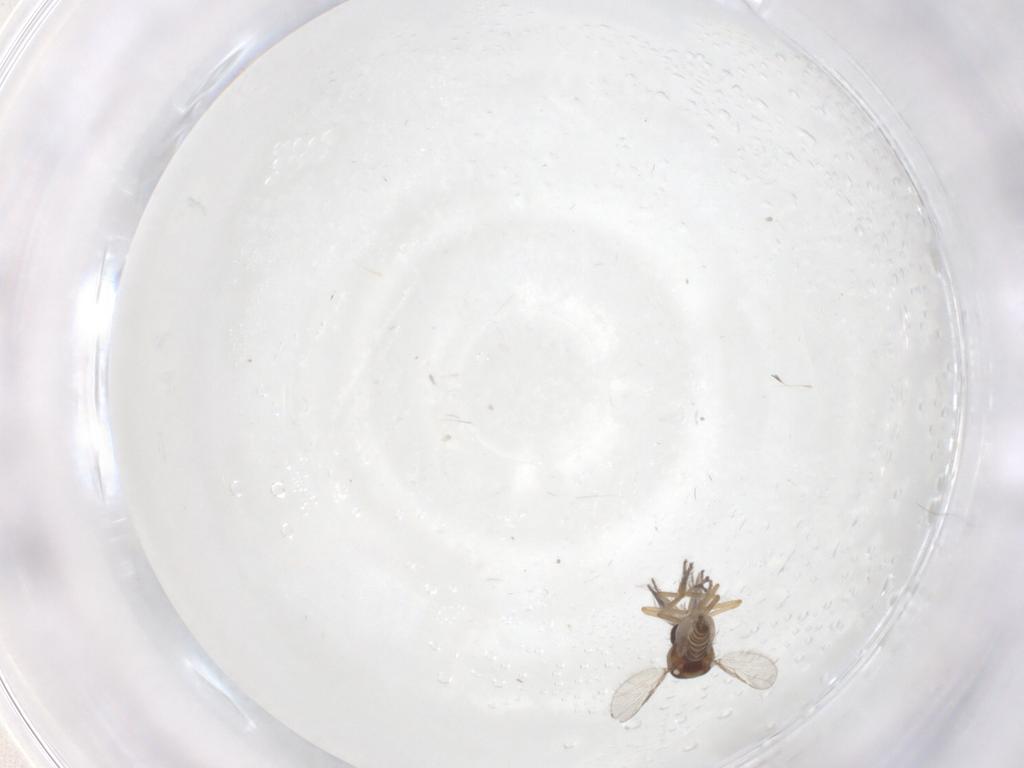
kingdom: Animalia
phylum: Arthropoda
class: Insecta
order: Diptera
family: Ceratopogonidae
